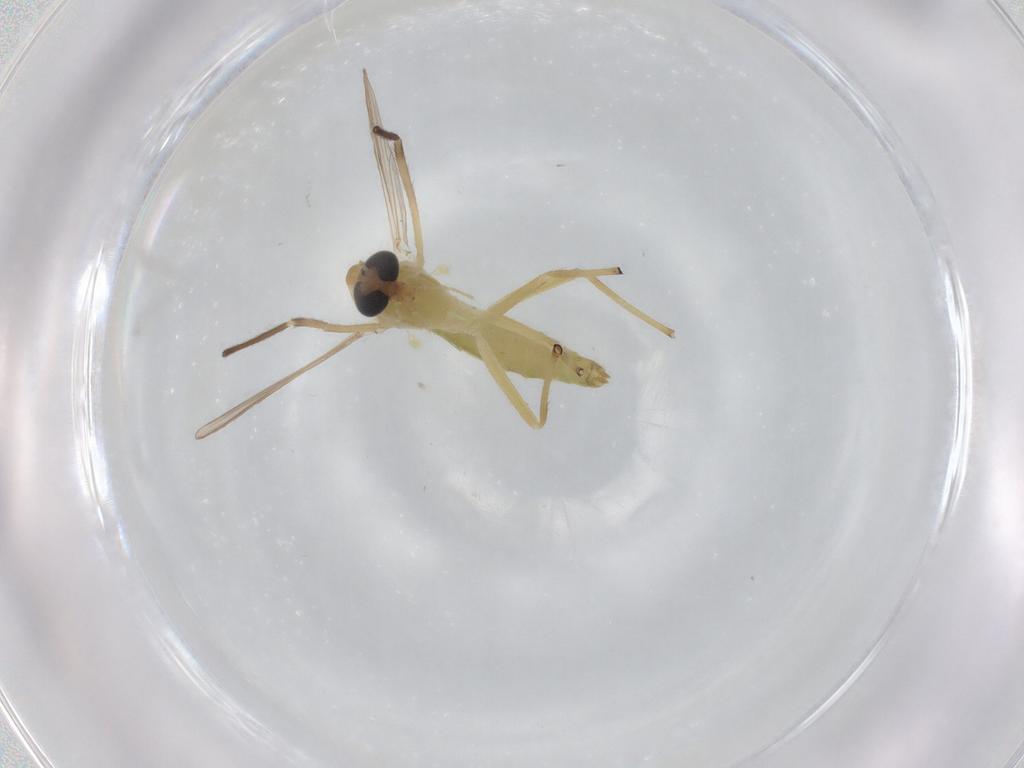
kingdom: Animalia
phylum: Arthropoda
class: Insecta
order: Diptera
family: Chironomidae
